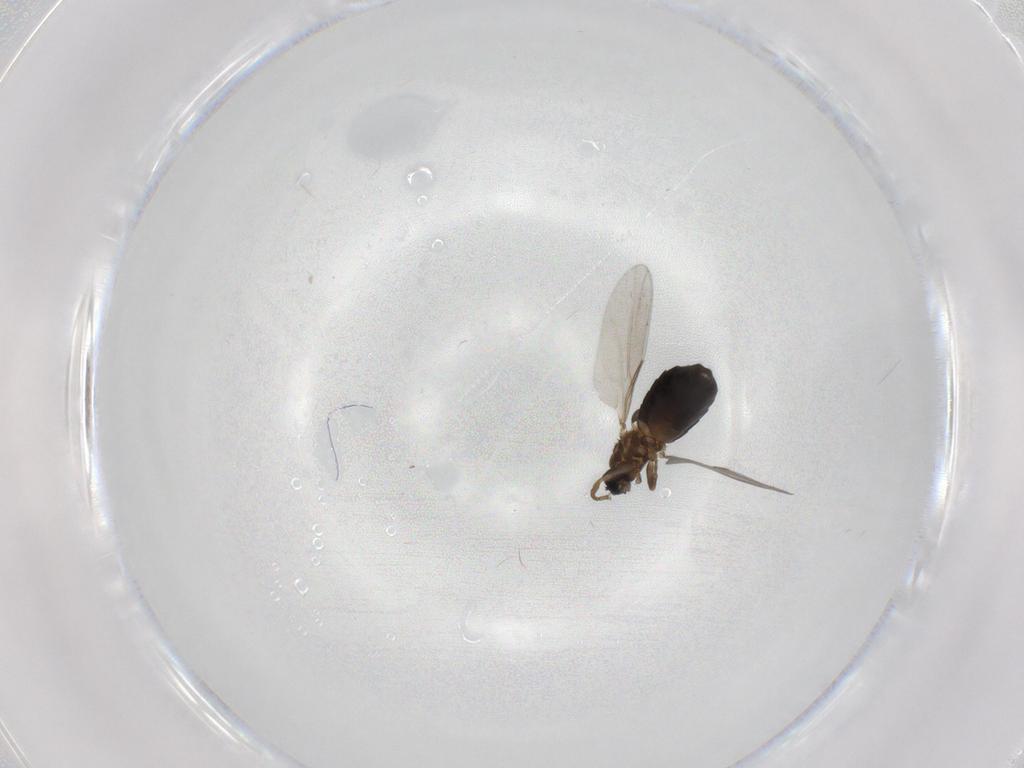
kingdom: Animalia
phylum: Arthropoda
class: Insecta
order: Diptera
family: Scatopsidae
